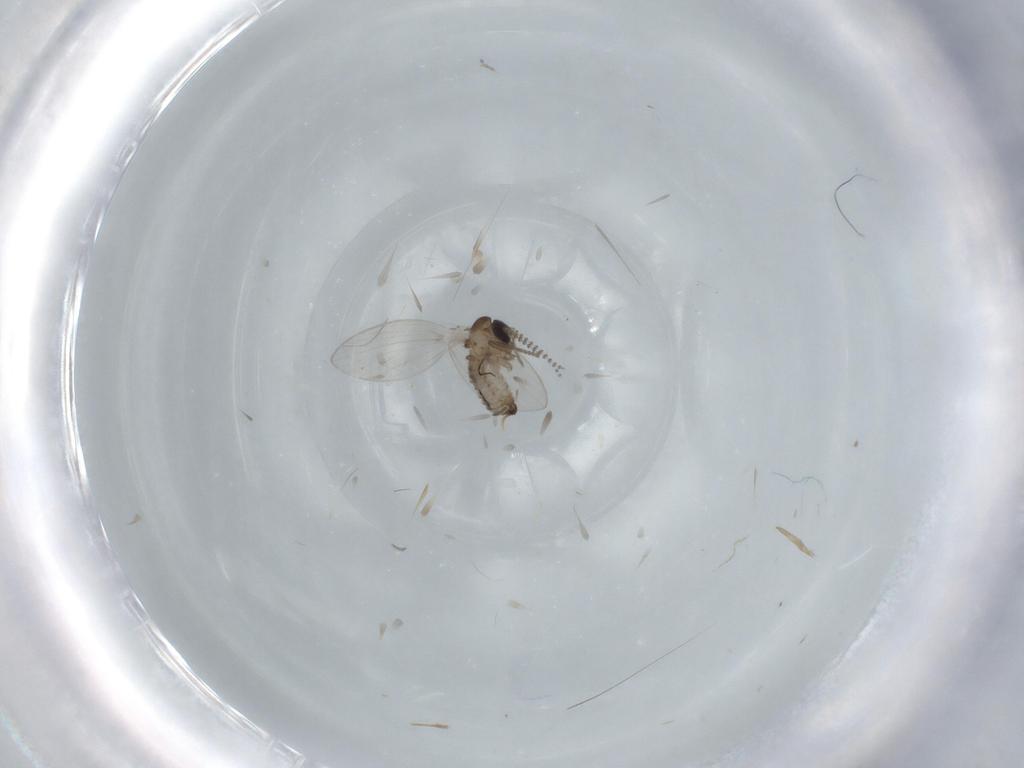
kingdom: Animalia
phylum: Arthropoda
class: Insecta
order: Diptera
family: Psychodidae
